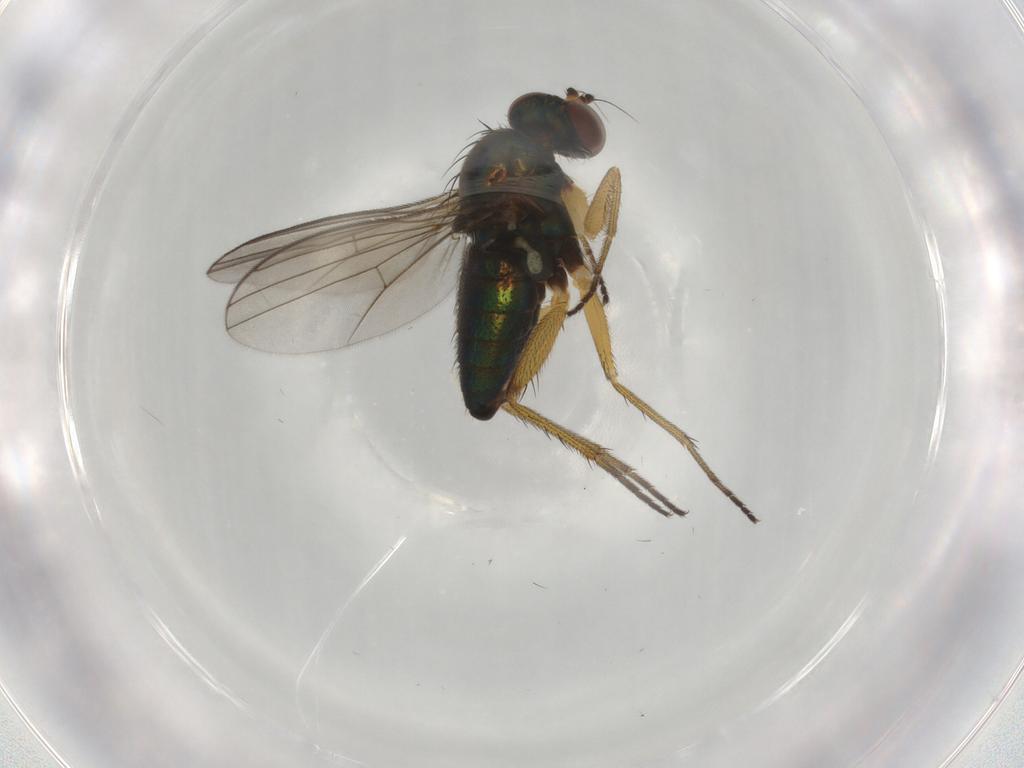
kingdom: Animalia
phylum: Arthropoda
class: Insecta
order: Diptera
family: Dolichopodidae
